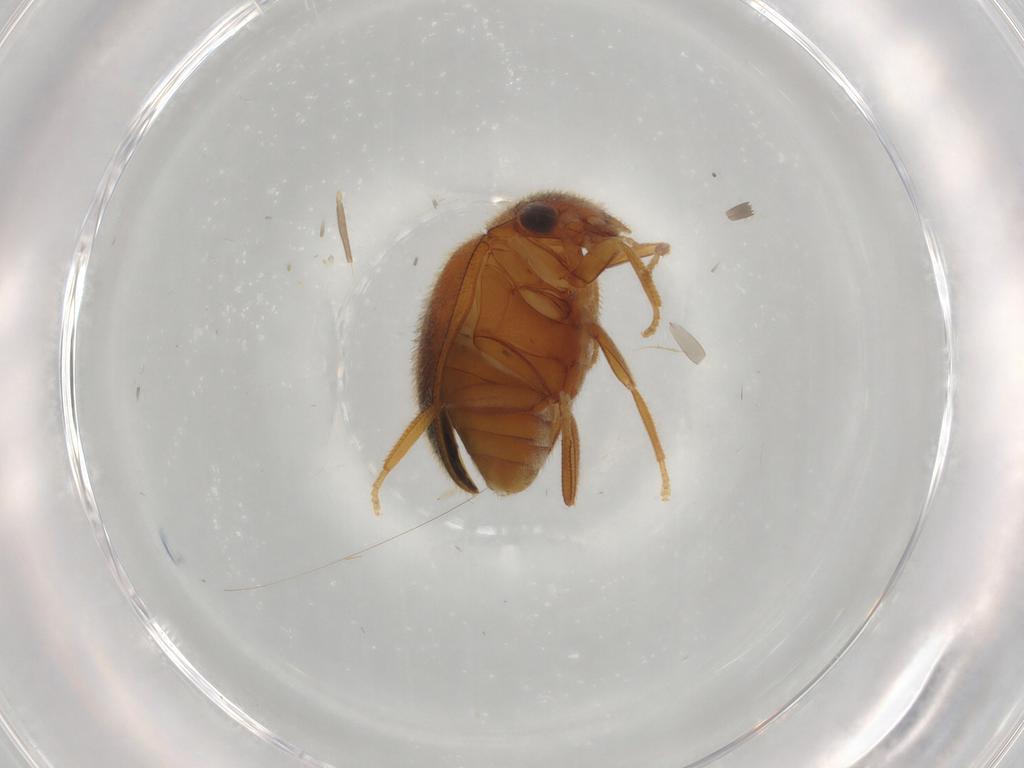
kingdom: Animalia
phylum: Arthropoda
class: Insecta
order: Coleoptera
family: Scirtidae
